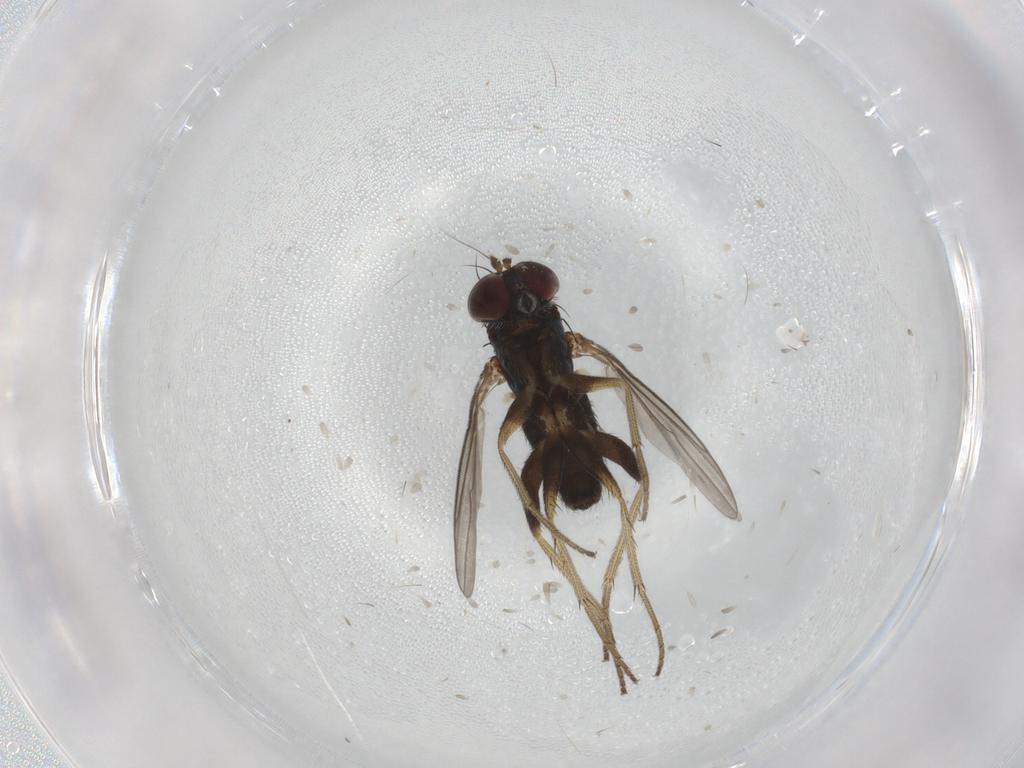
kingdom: Animalia
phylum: Arthropoda
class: Insecta
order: Diptera
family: Dolichopodidae
